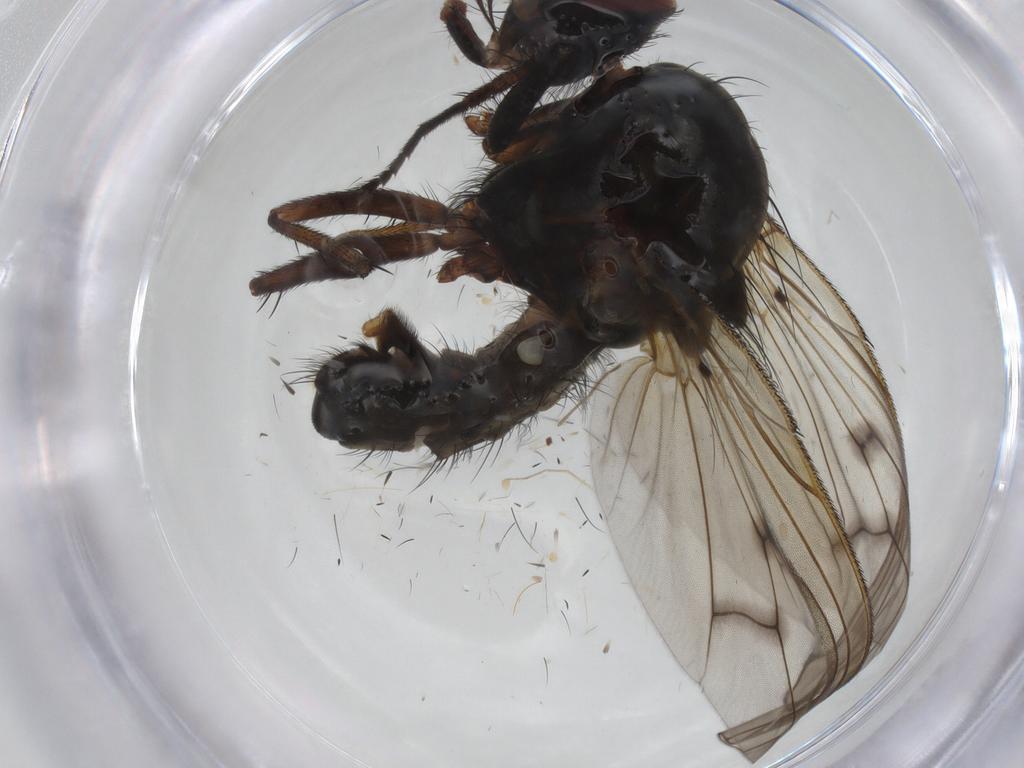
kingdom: Animalia
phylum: Arthropoda
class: Insecta
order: Diptera
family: Anthomyiidae
